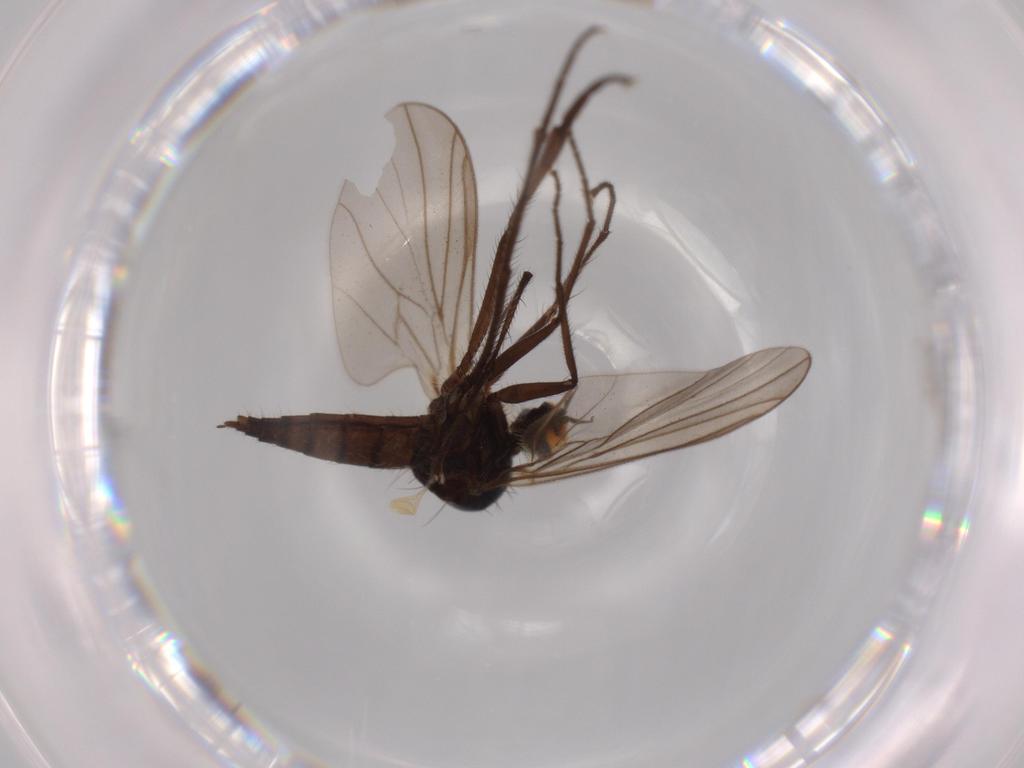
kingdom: Animalia
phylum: Arthropoda
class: Insecta
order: Diptera
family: Hybotidae
